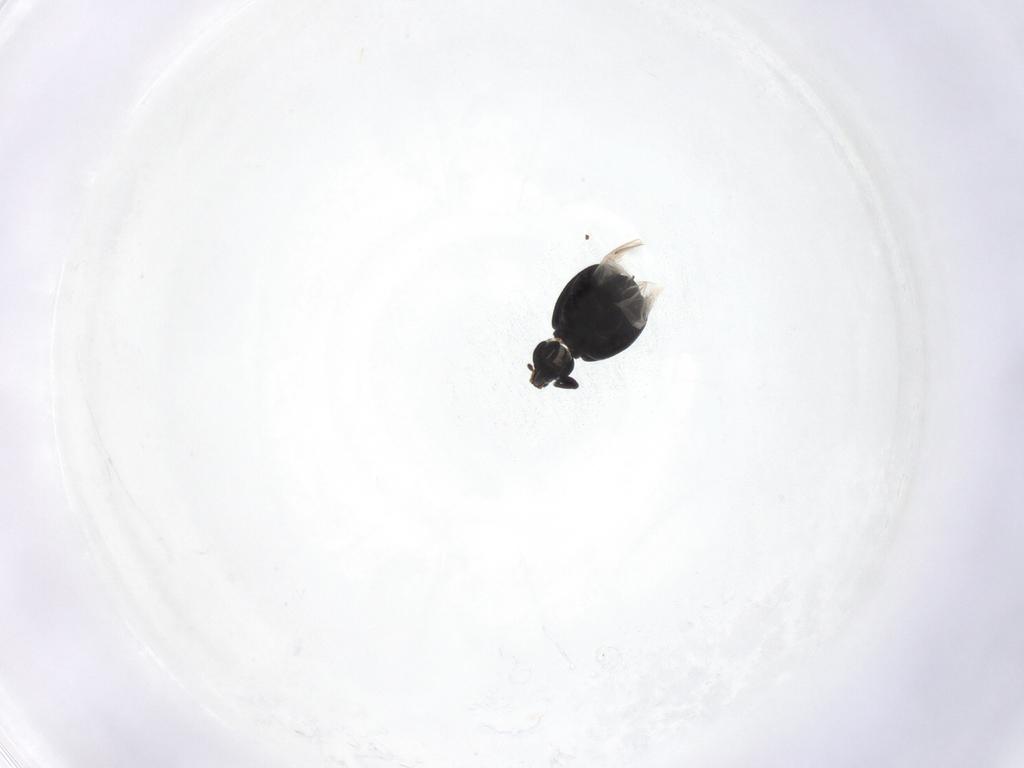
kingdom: Animalia
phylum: Arthropoda
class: Insecta
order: Coleoptera
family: Curculionidae
